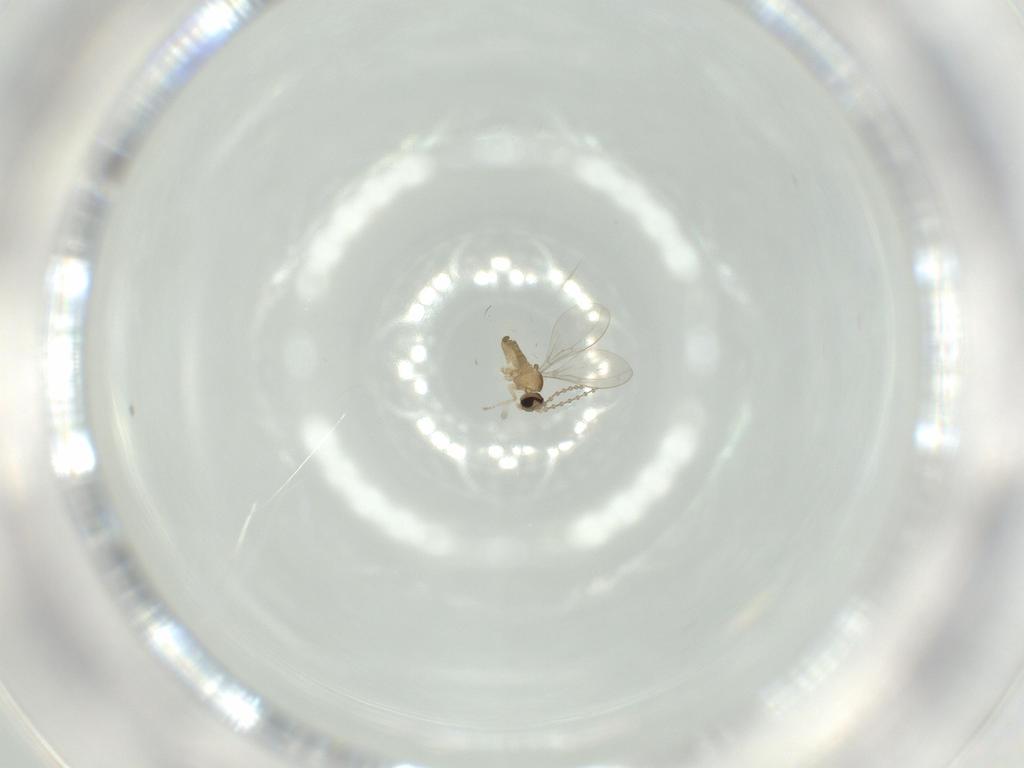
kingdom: Animalia
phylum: Arthropoda
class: Insecta
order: Diptera
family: Cecidomyiidae
